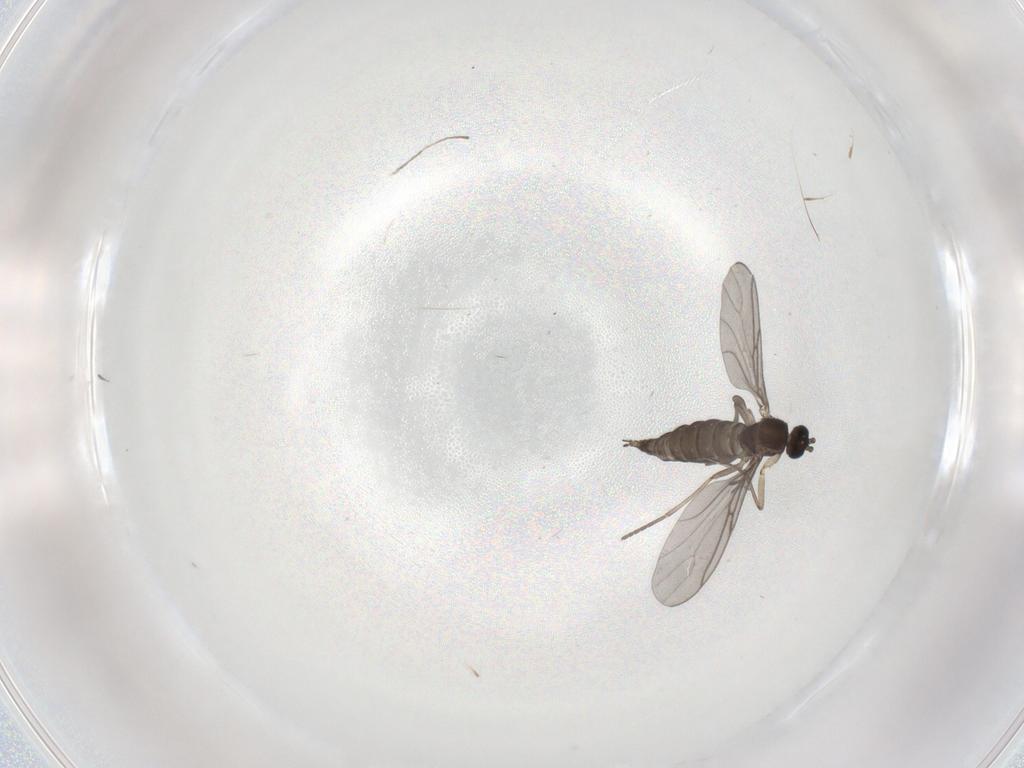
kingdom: Animalia
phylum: Arthropoda
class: Insecta
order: Diptera
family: Sciaridae
